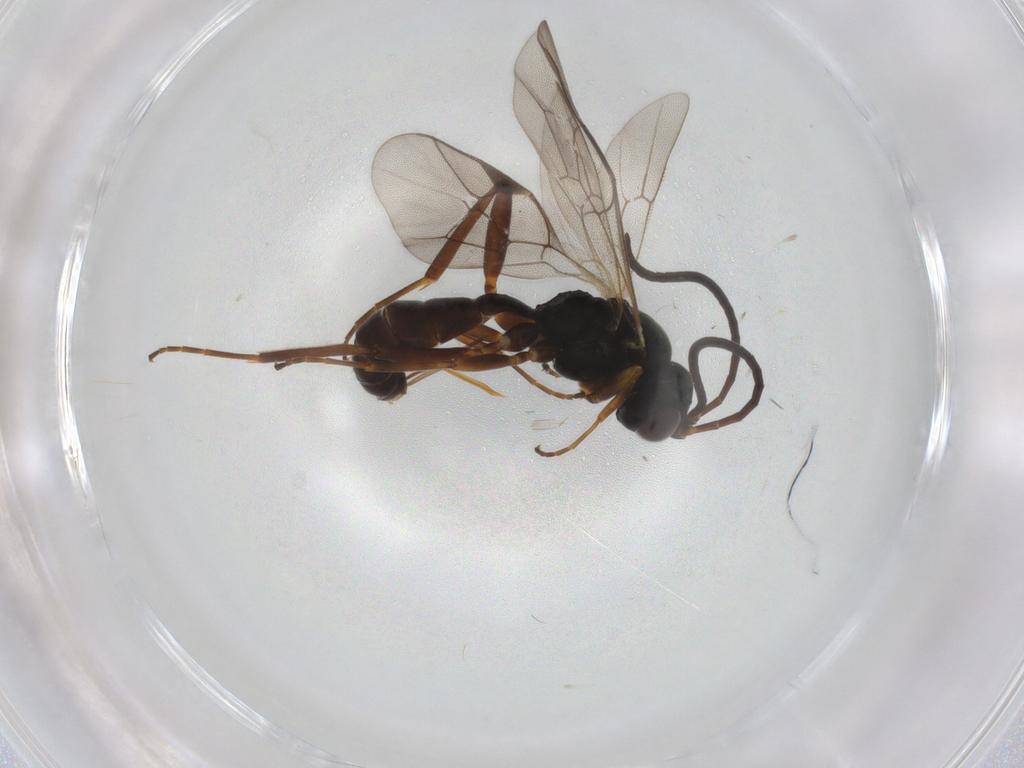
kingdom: Animalia
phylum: Arthropoda
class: Insecta
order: Hymenoptera
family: Ichneumonidae
